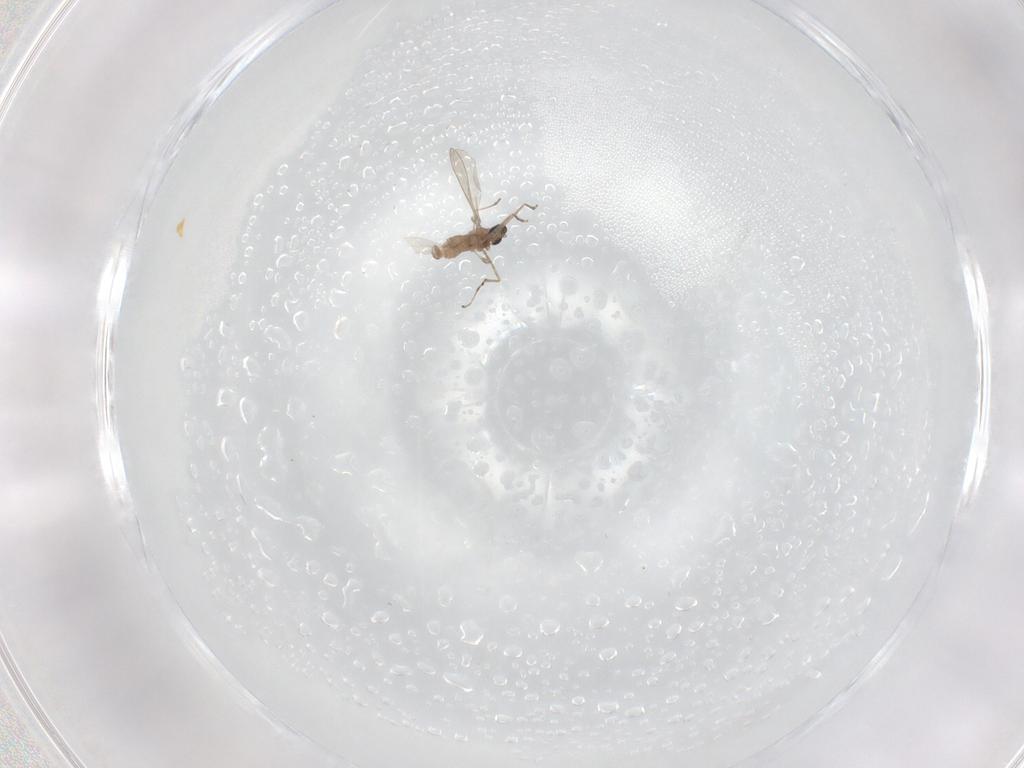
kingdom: Animalia
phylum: Arthropoda
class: Insecta
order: Diptera
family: Cecidomyiidae
